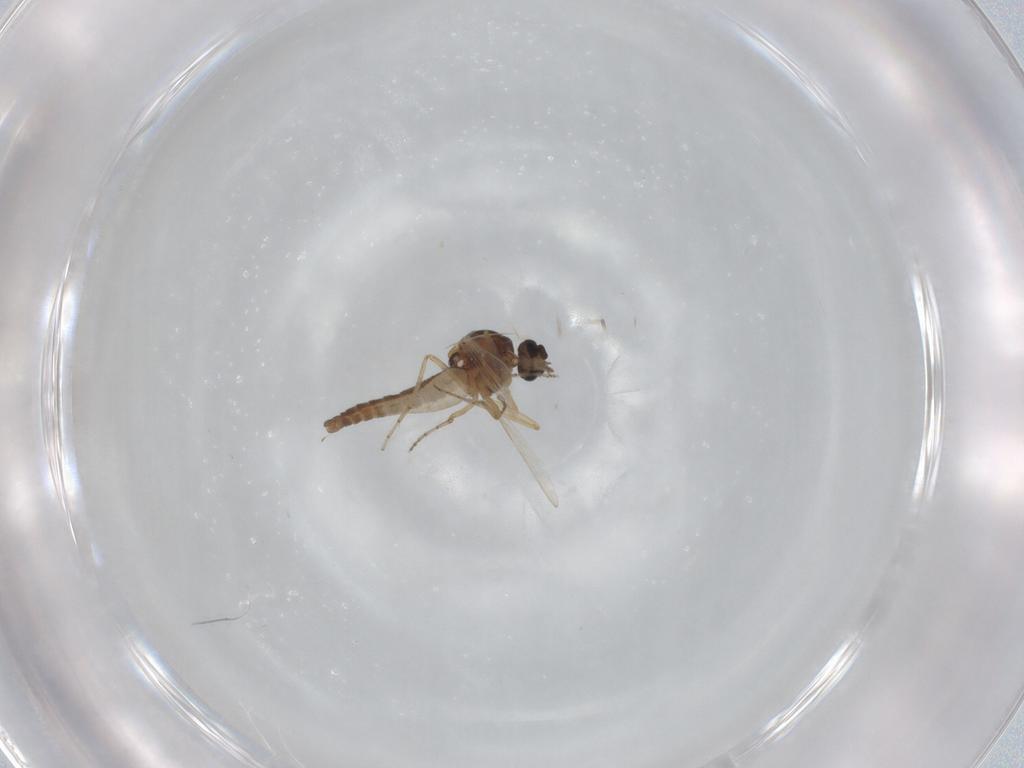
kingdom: Animalia
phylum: Arthropoda
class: Insecta
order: Diptera
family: Ceratopogonidae
